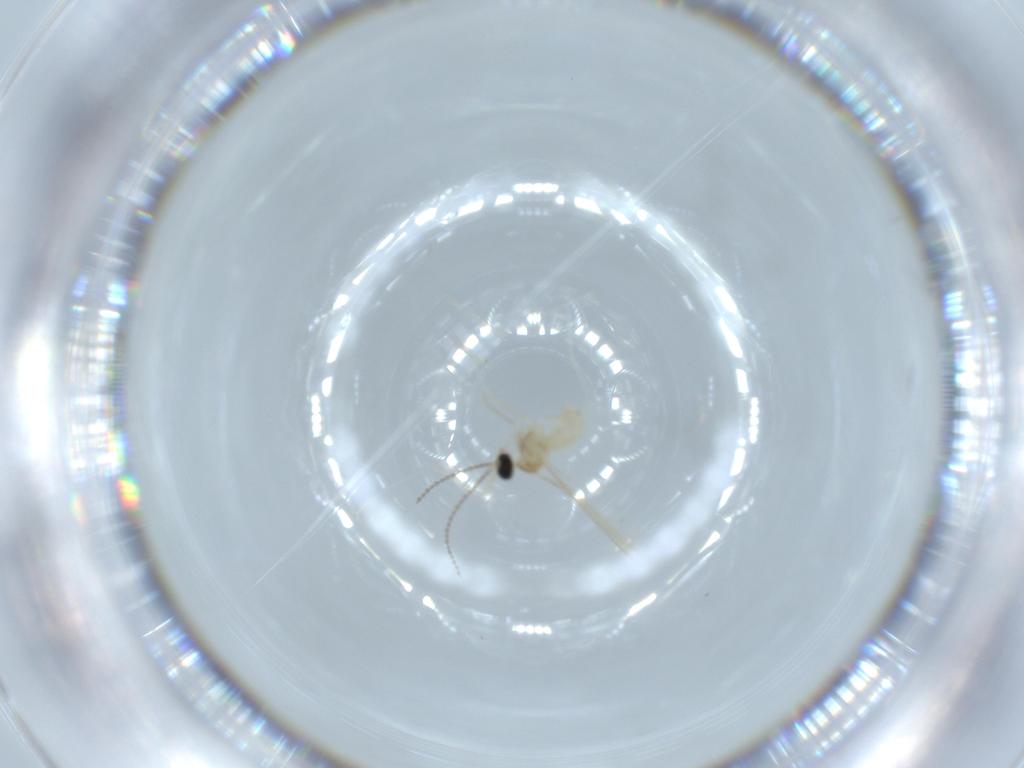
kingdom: Animalia
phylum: Arthropoda
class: Insecta
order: Diptera
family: Cecidomyiidae
